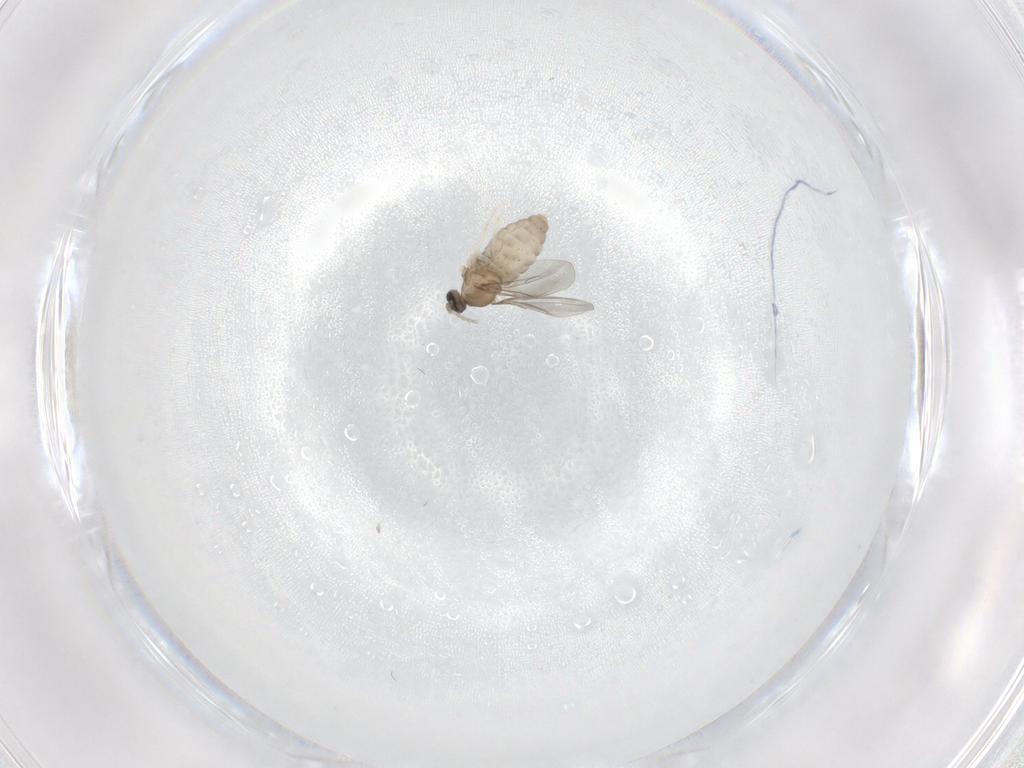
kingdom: Animalia
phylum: Arthropoda
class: Insecta
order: Diptera
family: Cecidomyiidae
